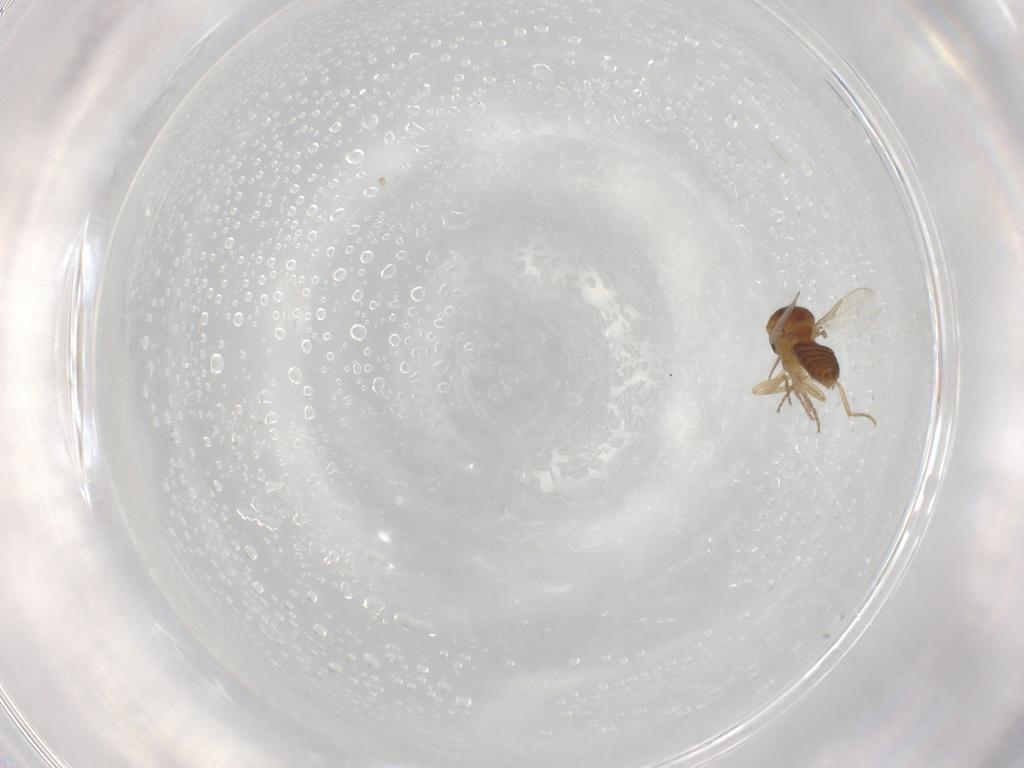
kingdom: Animalia
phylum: Arthropoda
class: Insecta
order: Diptera
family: Ceratopogonidae
